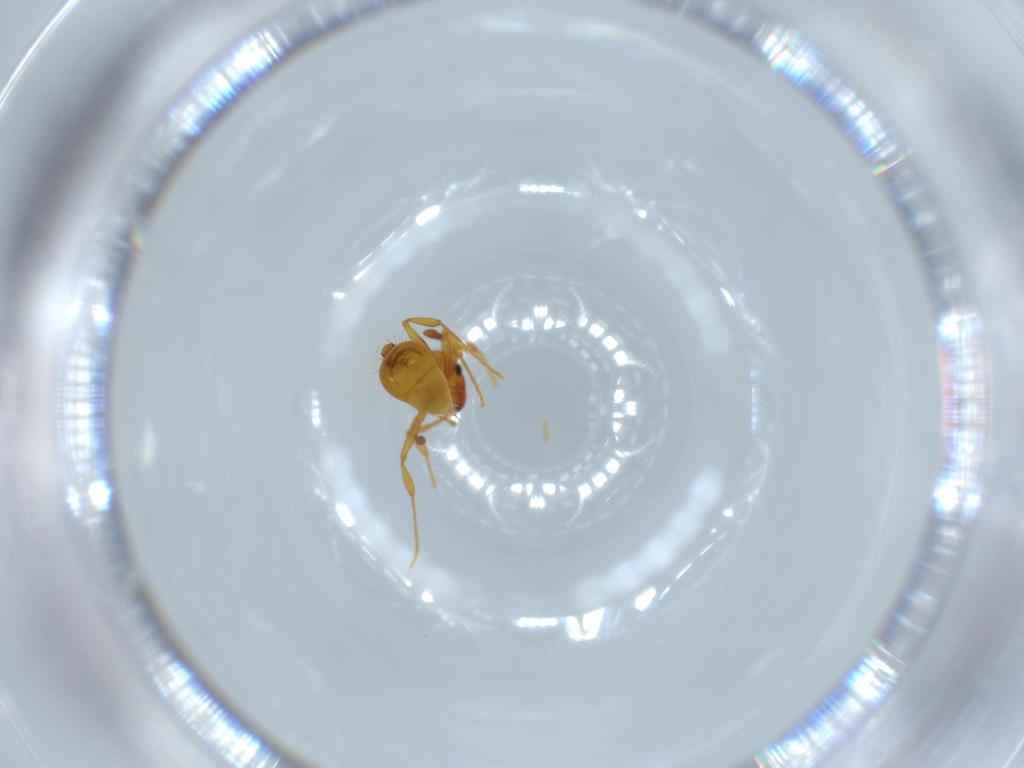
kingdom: Animalia
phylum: Arthropoda
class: Insecta
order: Hymenoptera
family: Formicidae
